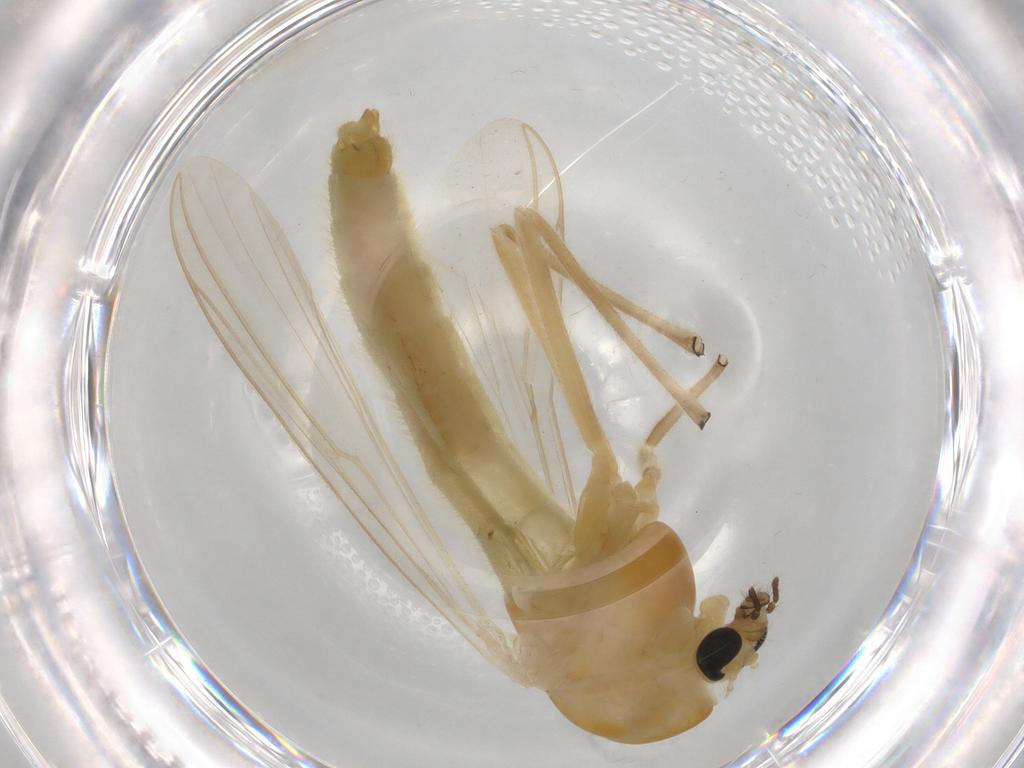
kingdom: Animalia
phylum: Arthropoda
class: Insecta
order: Diptera
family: Chironomidae
